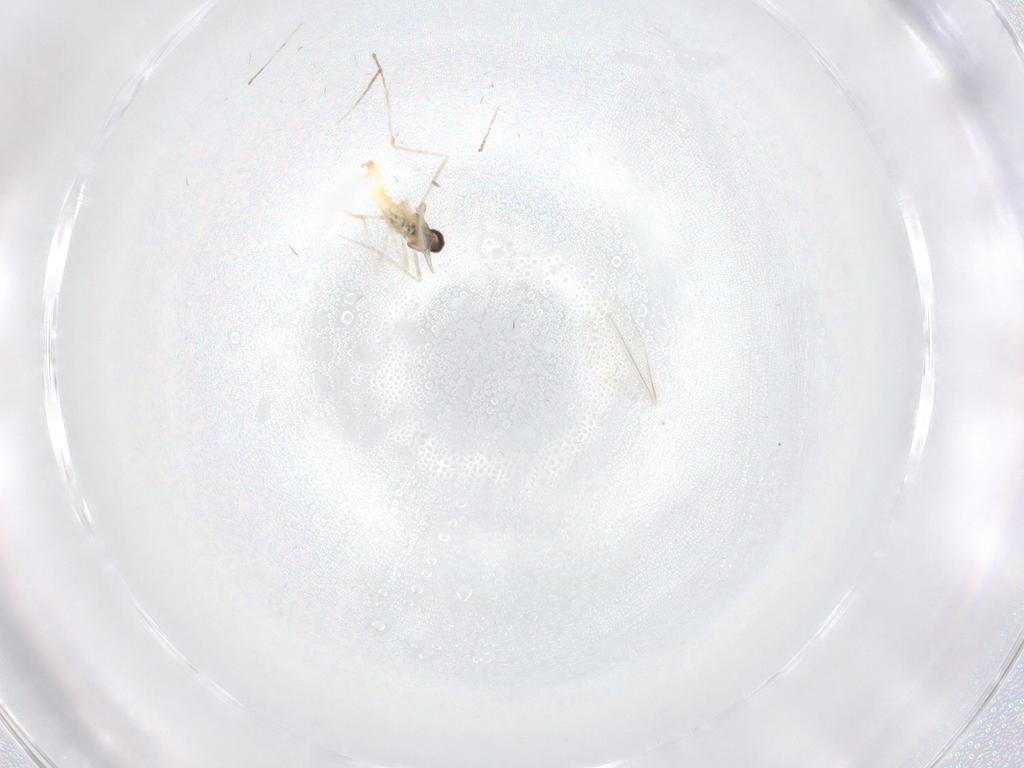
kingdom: Animalia
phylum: Arthropoda
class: Insecta
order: Diptera
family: Cecidomyiidae
